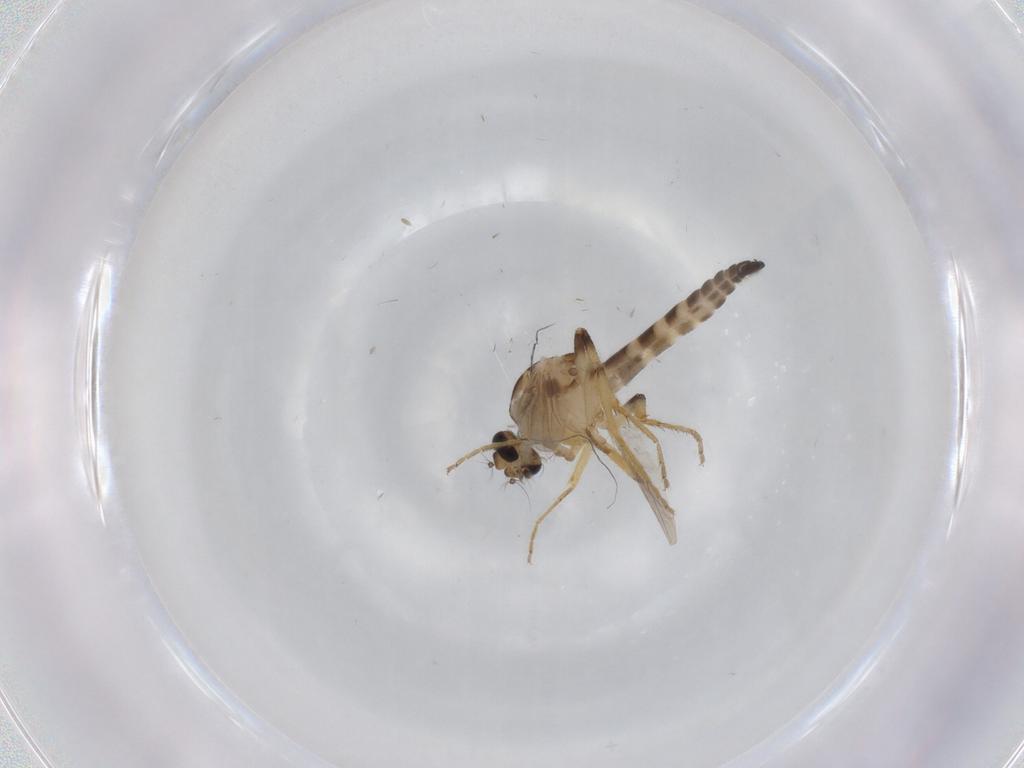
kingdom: Animalia
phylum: Arthropoda
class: Insecta
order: Diptera
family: Ceratopogonidae
